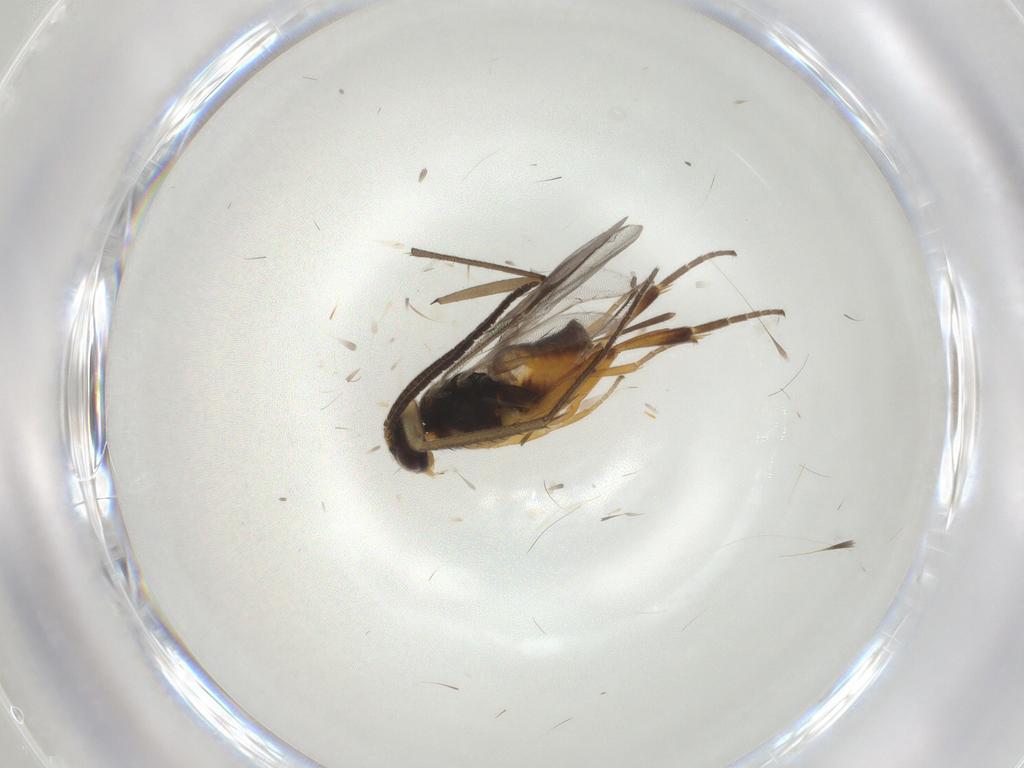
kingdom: Animalia
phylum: Arthropoda
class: Insecta
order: Hymenoptera
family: Braconidae
